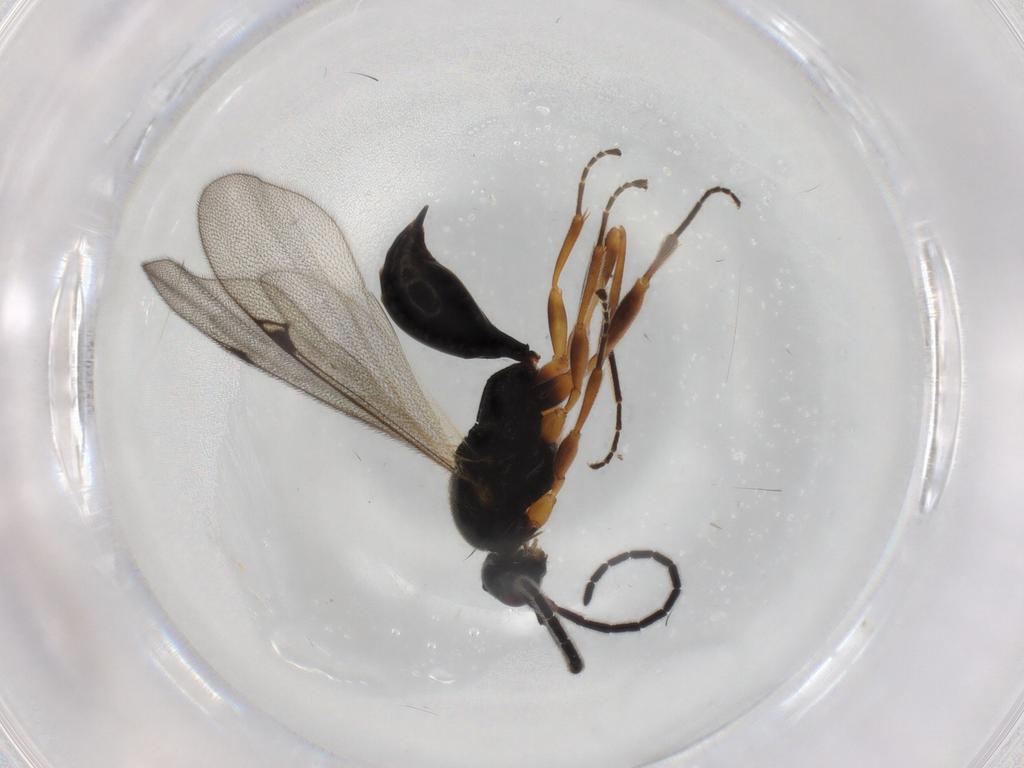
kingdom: Animalia
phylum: Arthropoda
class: Insecta
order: Hymenoptera
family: Proctotrupidae
